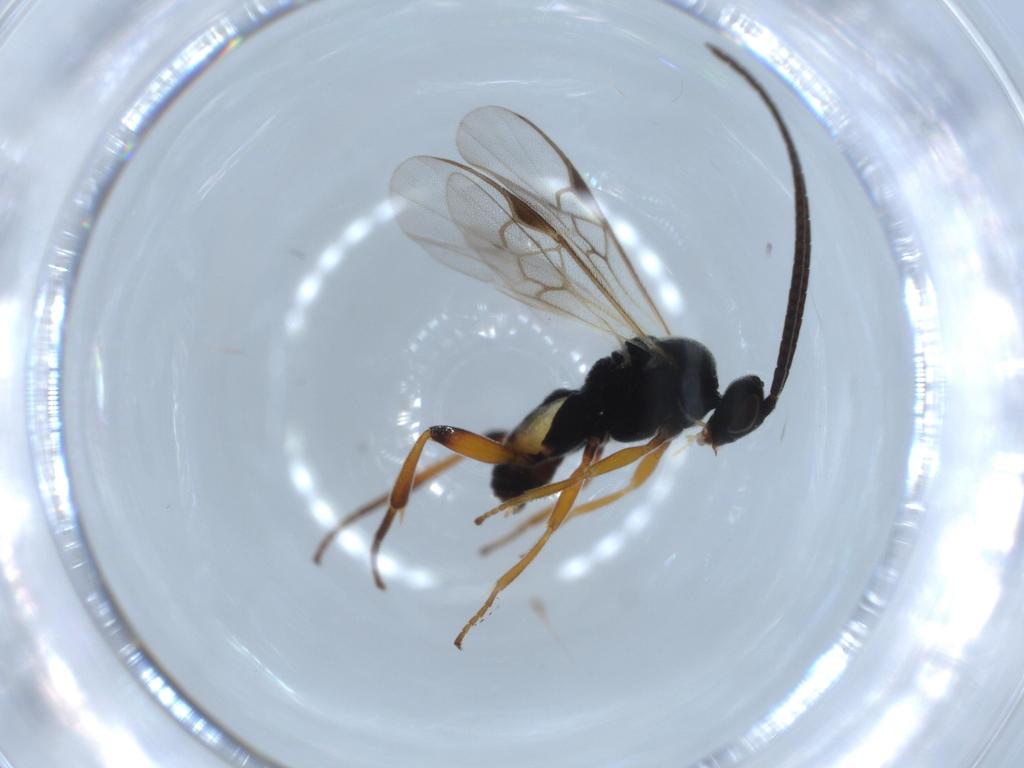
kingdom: Animalia
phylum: Arthropoda
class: Insecta
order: Hymenoptera
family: Braconidae
